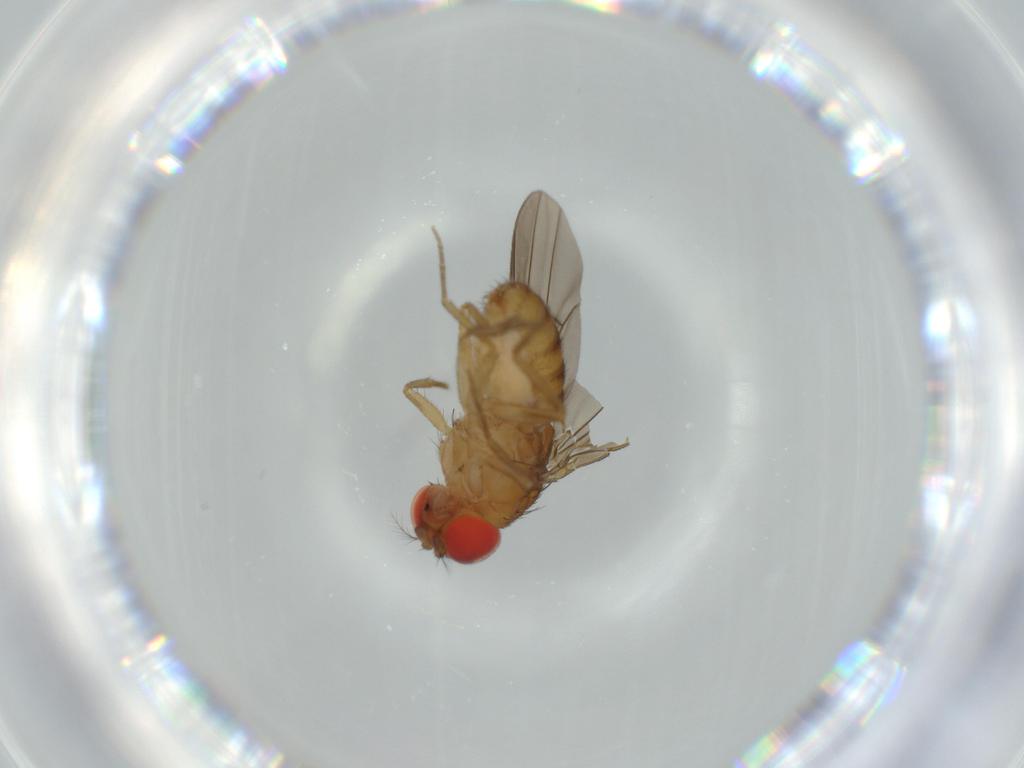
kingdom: Animalia
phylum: Arthropoda
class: Insecta
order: Diptera
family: Psychodidae
